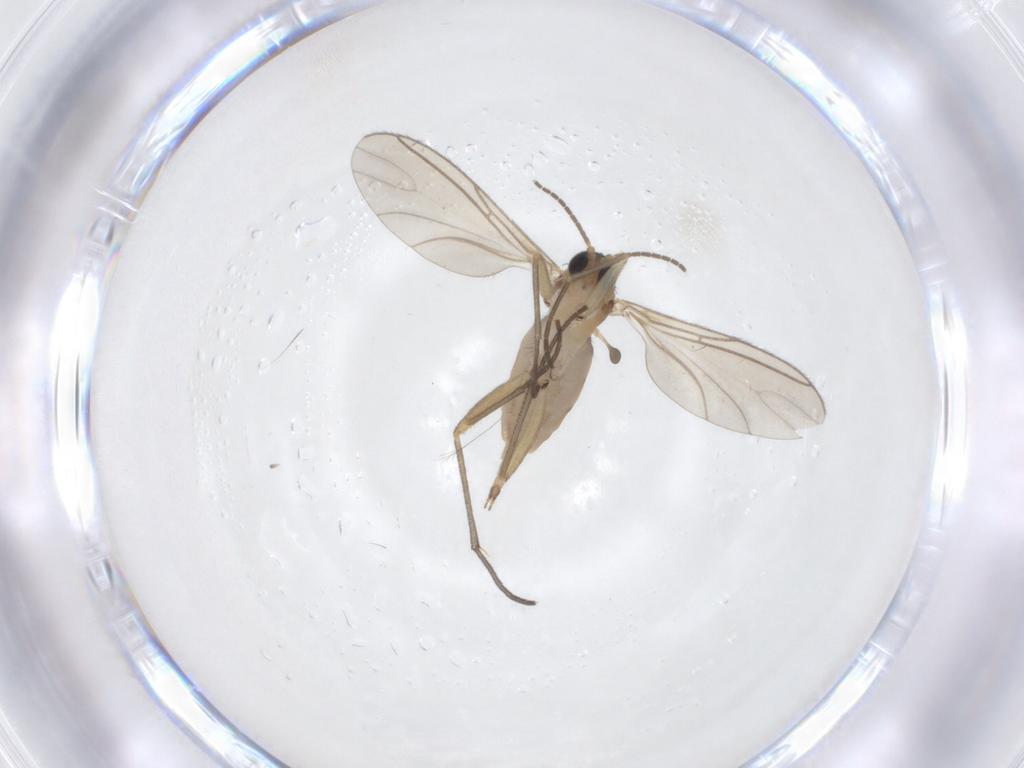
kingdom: Animalia
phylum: Arthropoda
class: Insecta
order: Diptera
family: Sciaridae
